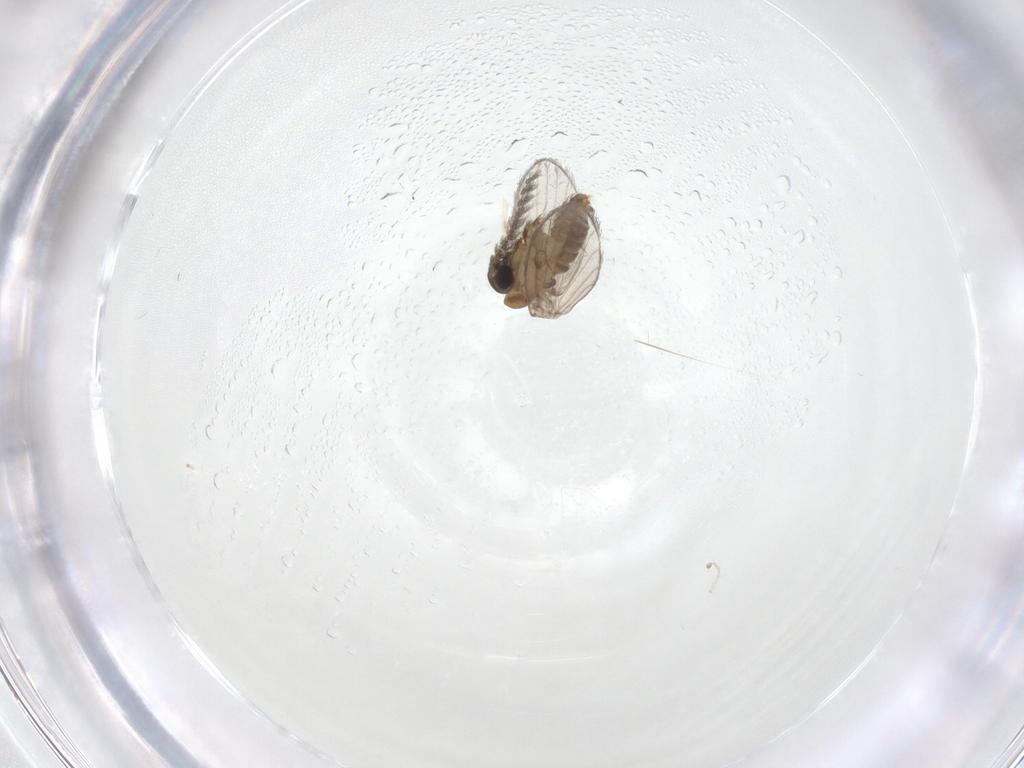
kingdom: Animalia
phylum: Arthropoda
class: Insecta
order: Diptera
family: Psychodidae
